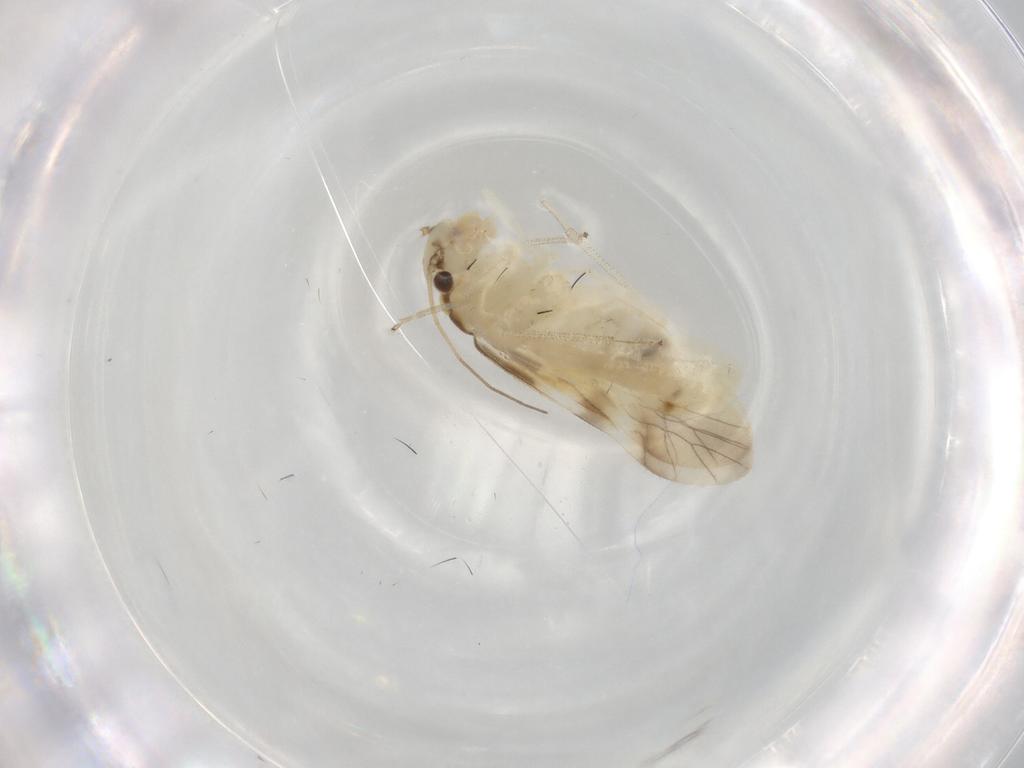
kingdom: Animalia
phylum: Arthropoda
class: Insecta
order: Psocodea
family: Caeciliusidae
